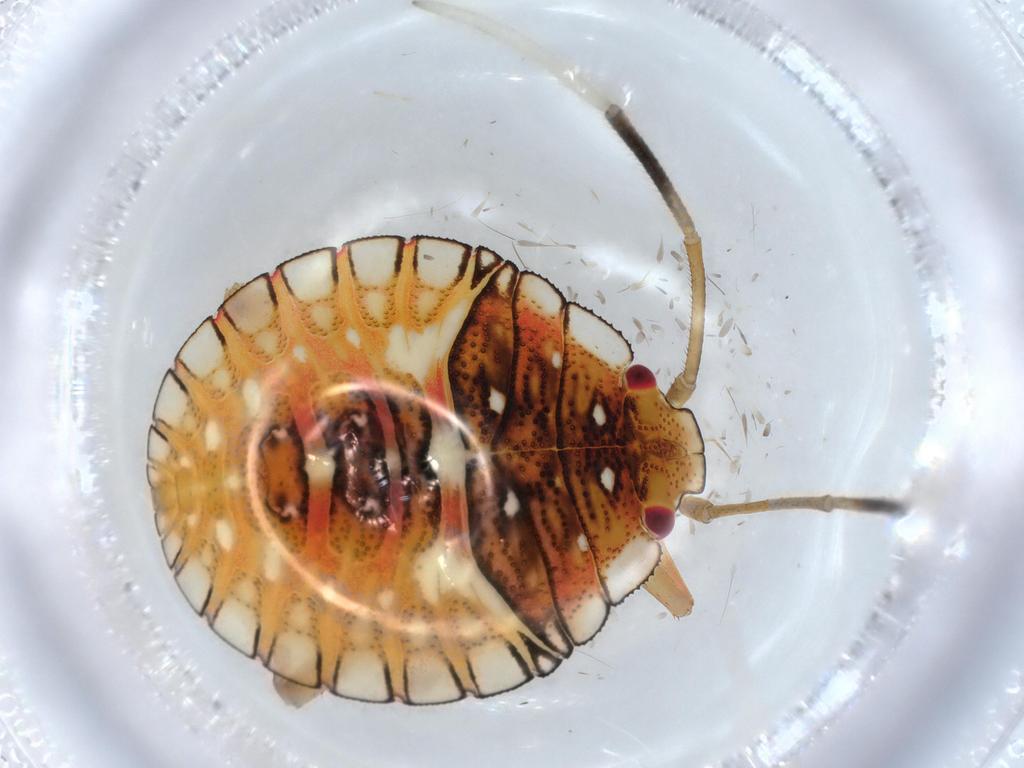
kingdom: Animalia
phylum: Arthropoda
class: Insecta
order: Hemiptera
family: Pentatomidae
